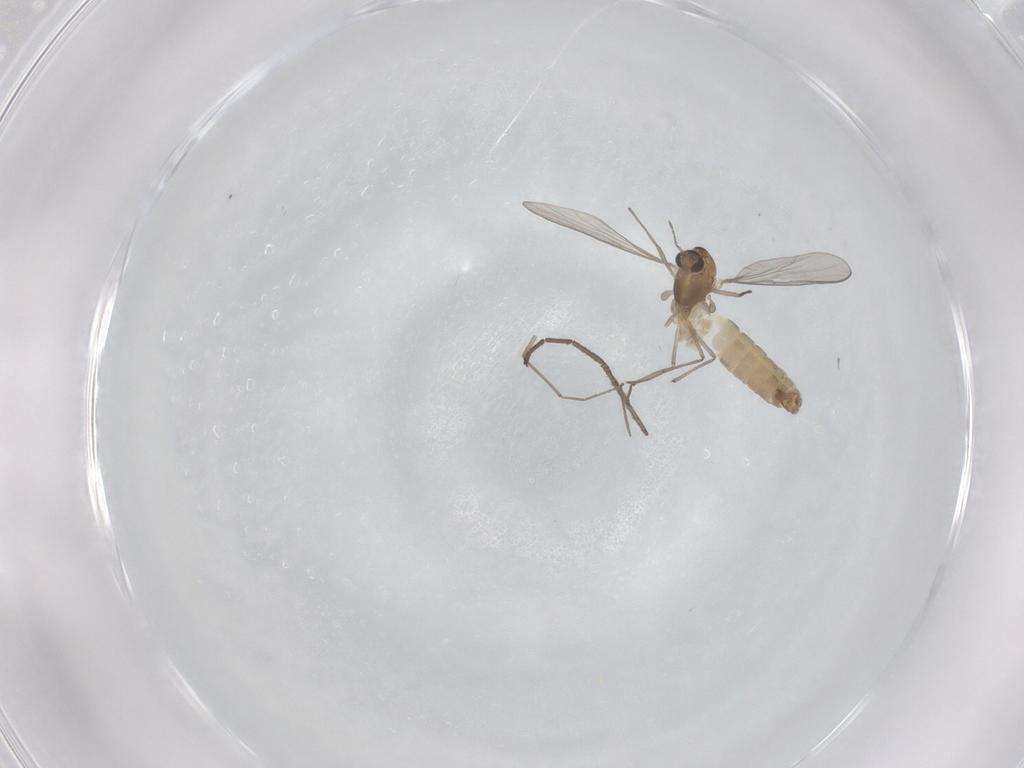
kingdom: Animalia
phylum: Arthropoda
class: Insecta
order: Diptera
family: Chironomidae
